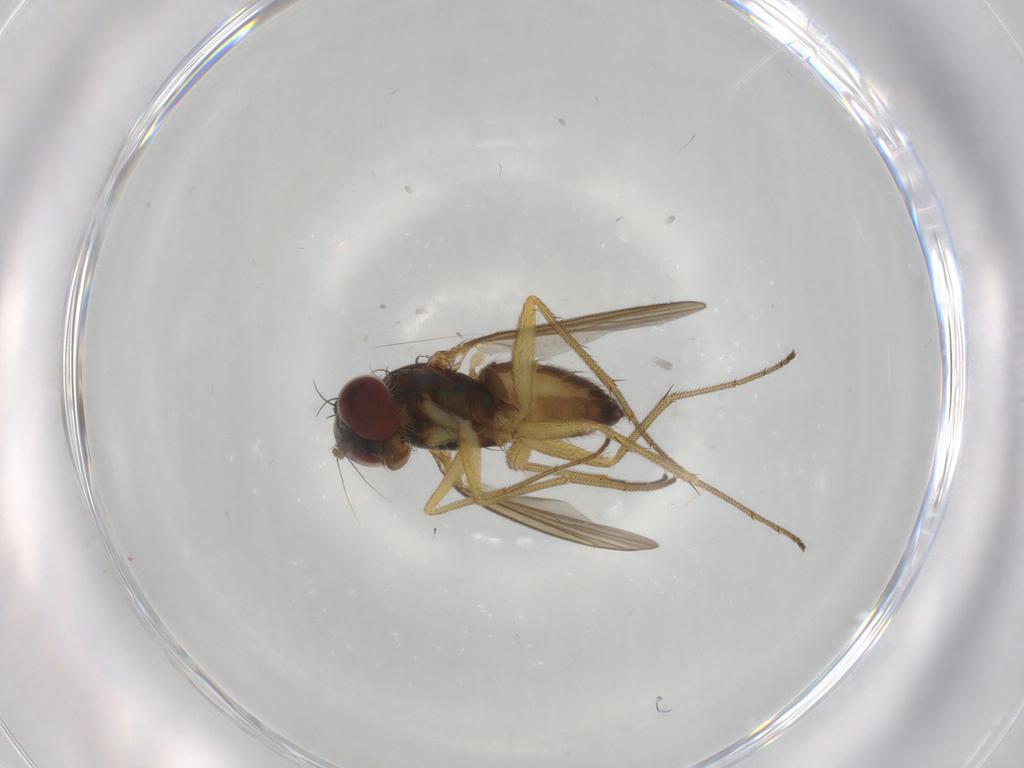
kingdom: Animalia
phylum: Arthropoda
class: Insecta
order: Diptera
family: Dolichopodidae
